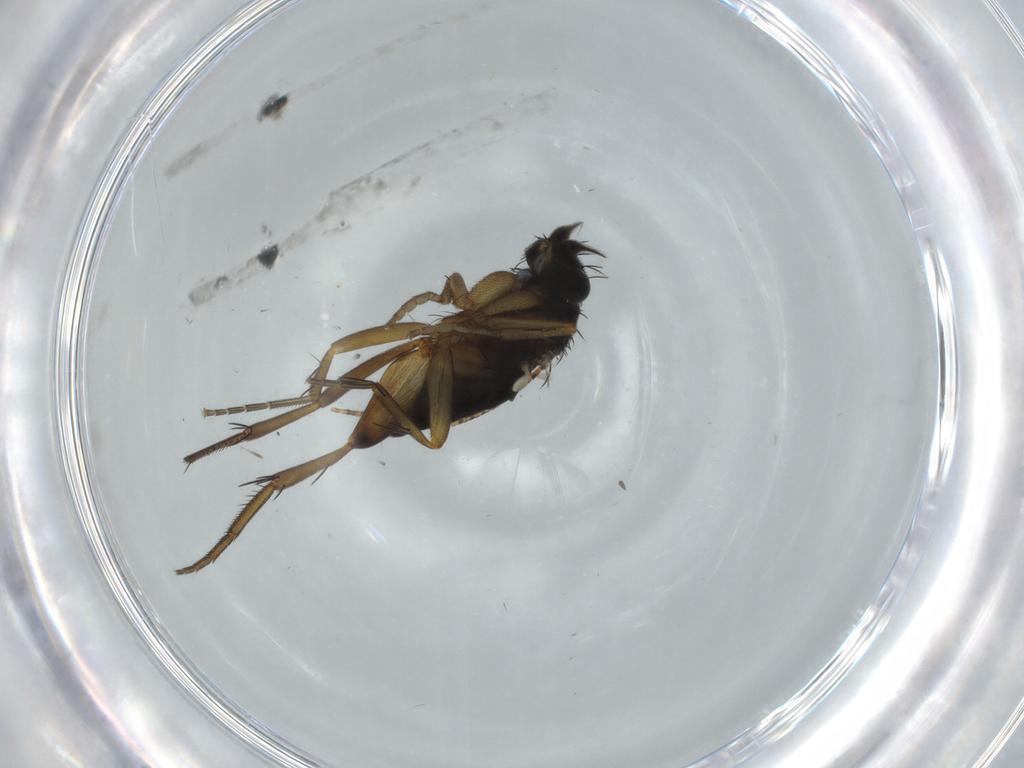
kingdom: Animalia
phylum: Arthropoda
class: Insecta
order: Diptera
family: Phoridae
